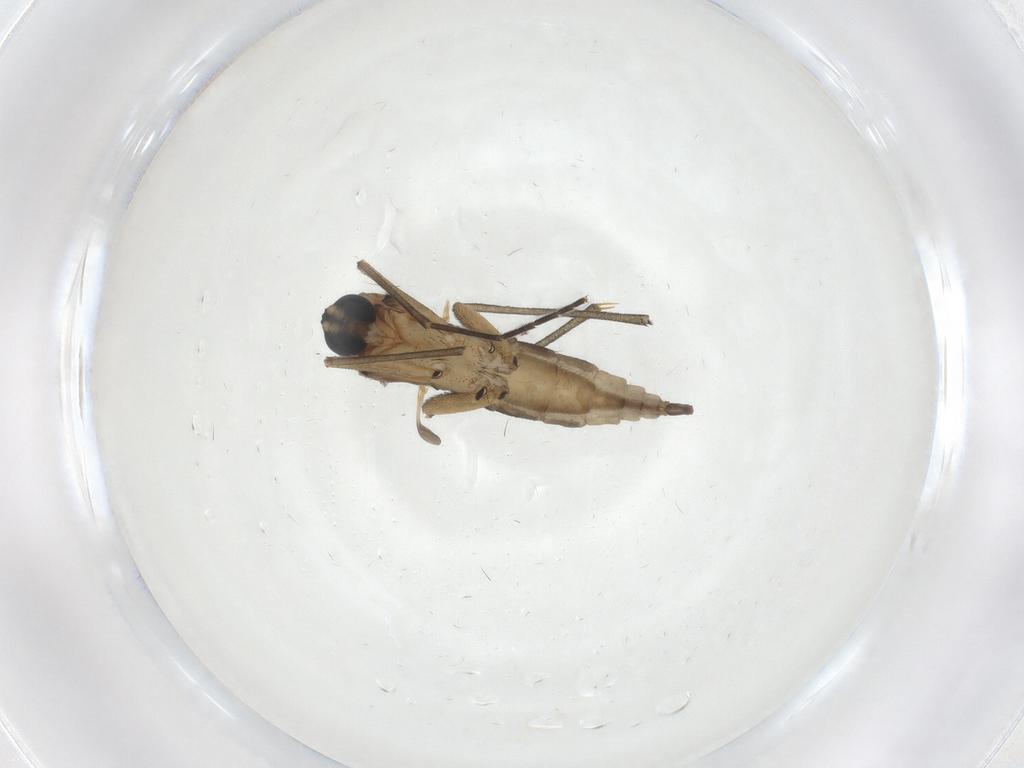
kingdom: Animalia
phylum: Arthropoda
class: Insecta
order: Diptera
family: Sciaridae
